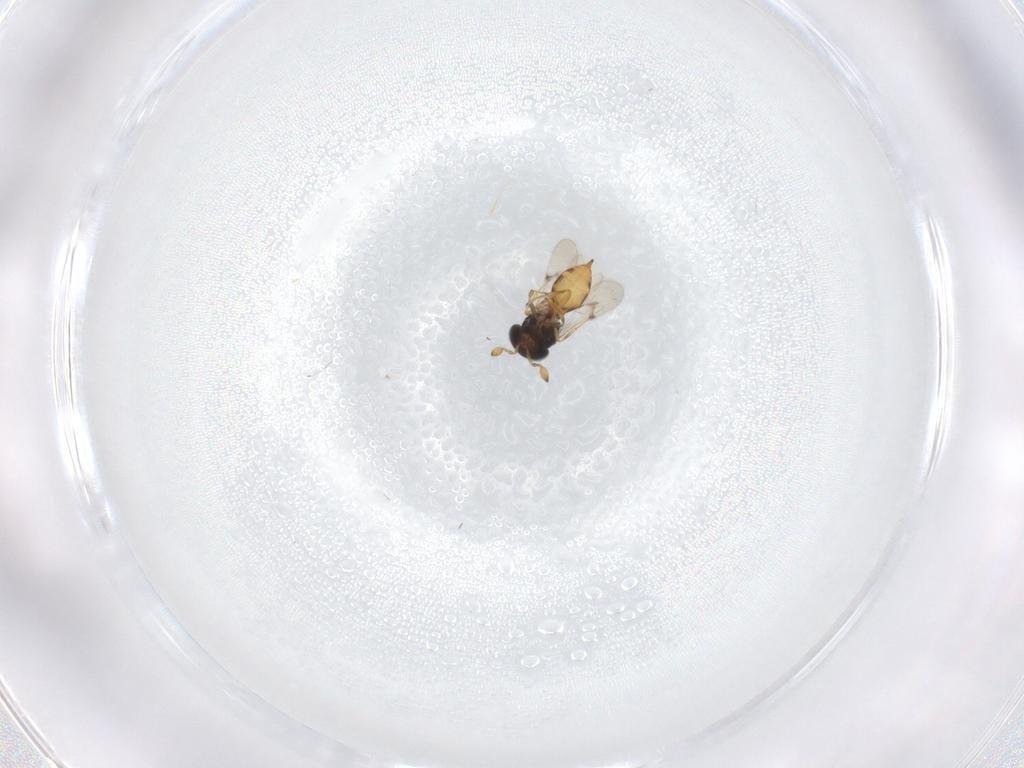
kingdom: Animalia
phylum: Arthropoda
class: Insecta
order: Hymenoptera
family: Scelionidae
